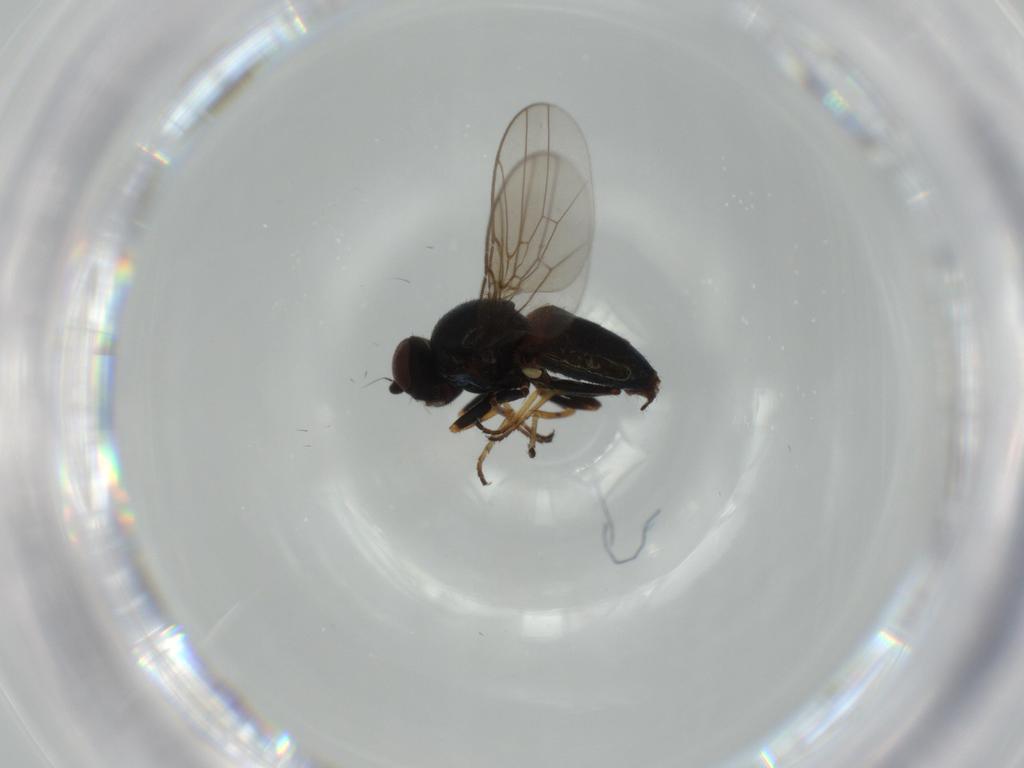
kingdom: Animalia
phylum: Arthropoda
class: Insecta
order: Diptera
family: Chloropidae
